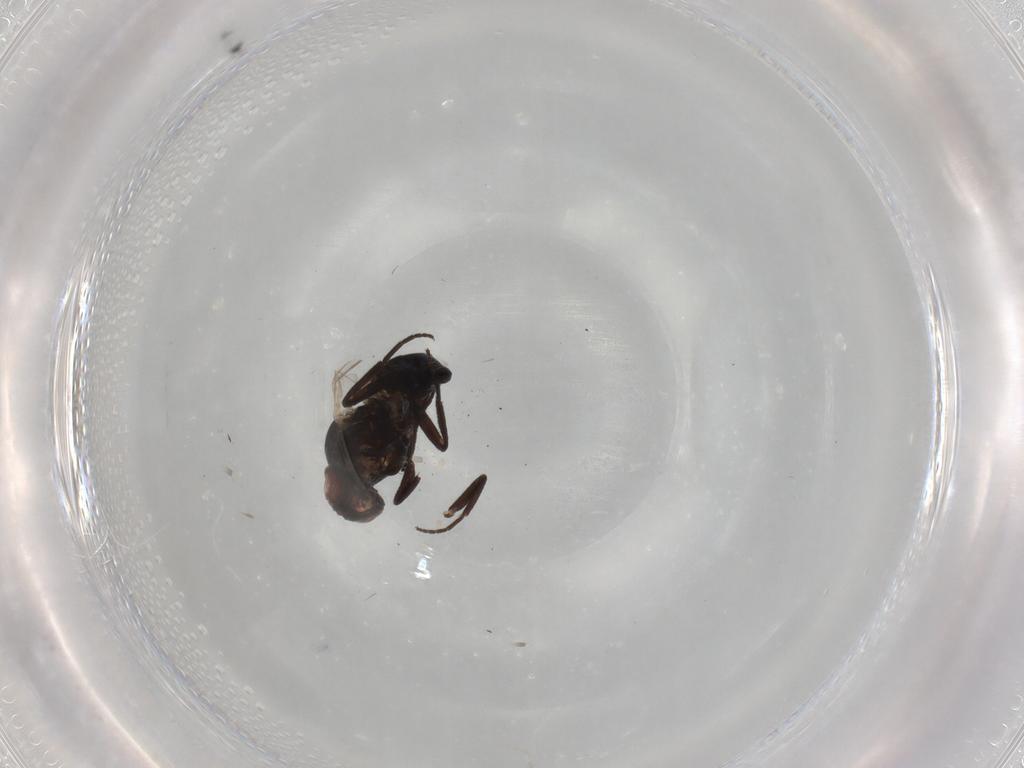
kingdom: Animalia
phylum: Arthropoda
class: Insecta
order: Diptera
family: Agromyzidae
